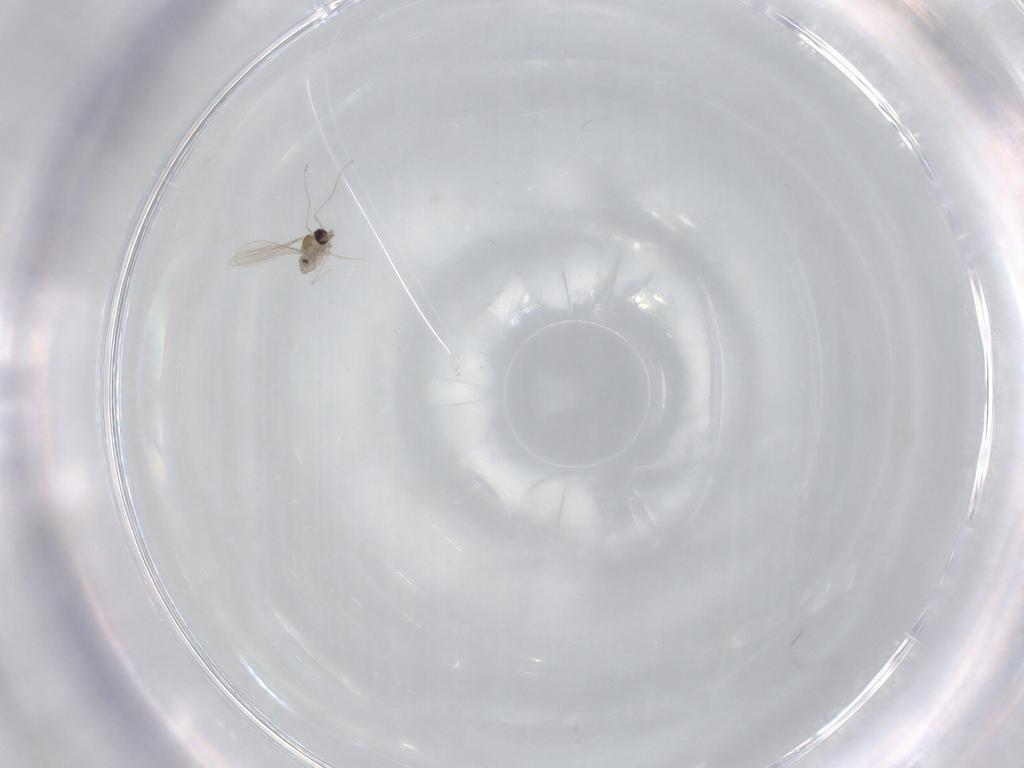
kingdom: Animalia
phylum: Arthropoda
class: Insecta
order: Diptera
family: Cecidomyiidae
